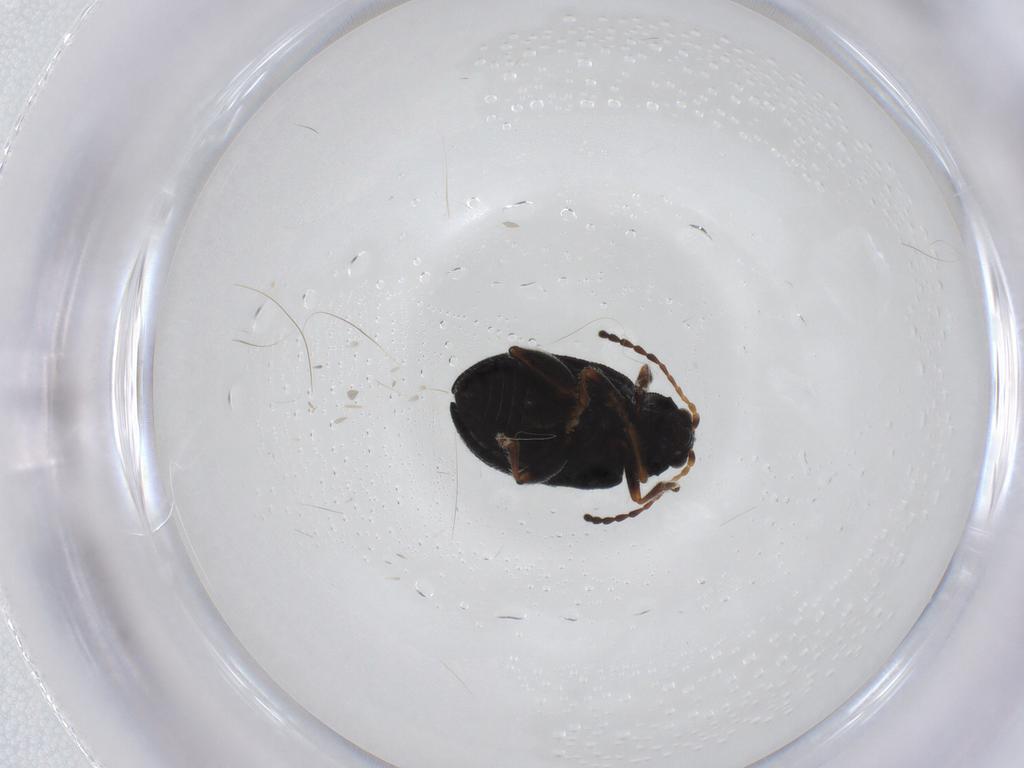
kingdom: Animalia
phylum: Arthropoda
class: Insecta
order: Coleoptera
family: Chrysomelidae
